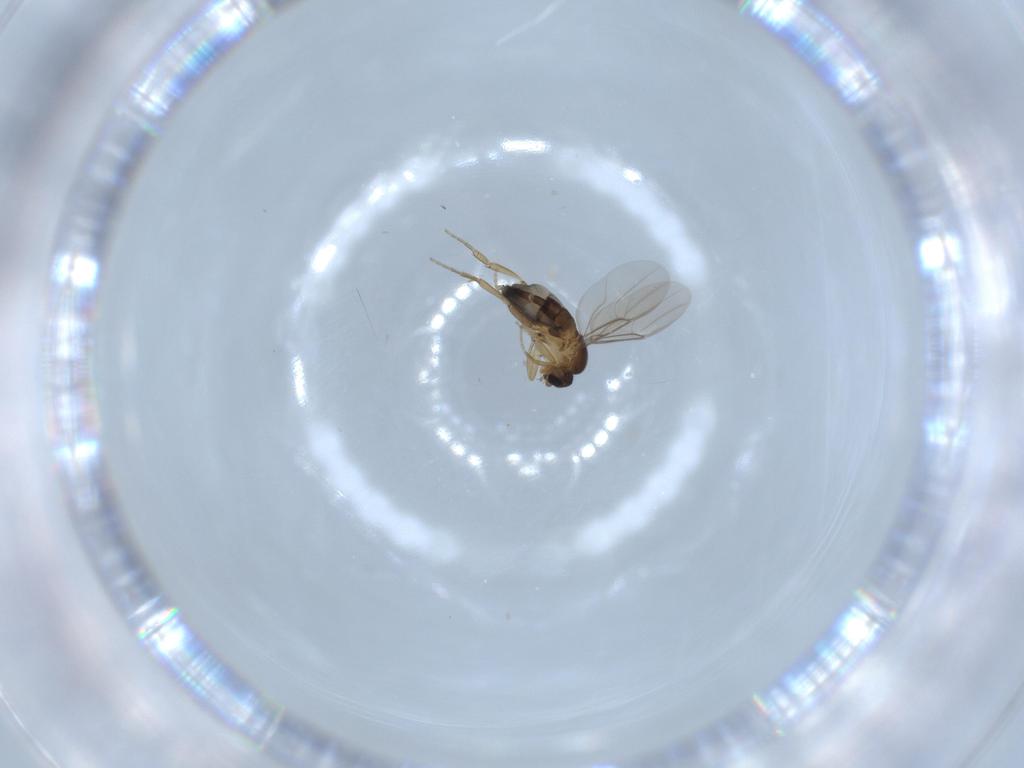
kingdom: Animalia
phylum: Arthropoda
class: Insecta
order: Diptera
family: Phoridae
